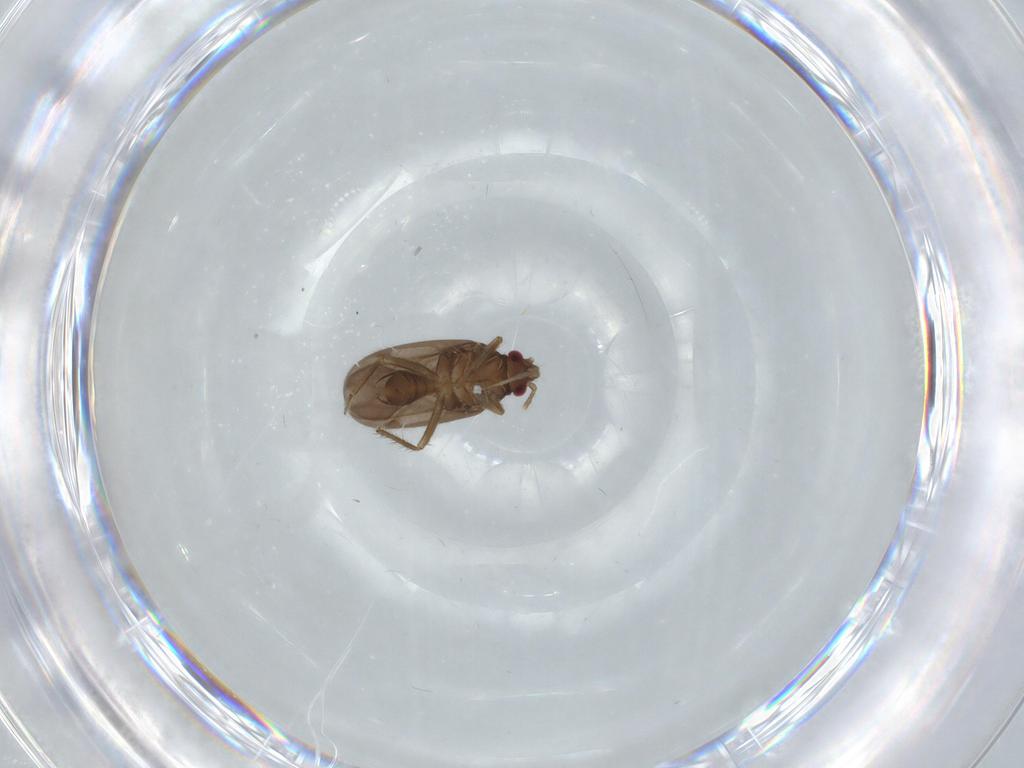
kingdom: Animalia
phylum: Arthropoda
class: Insecta
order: Hemiptera
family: Ceratocombidae
